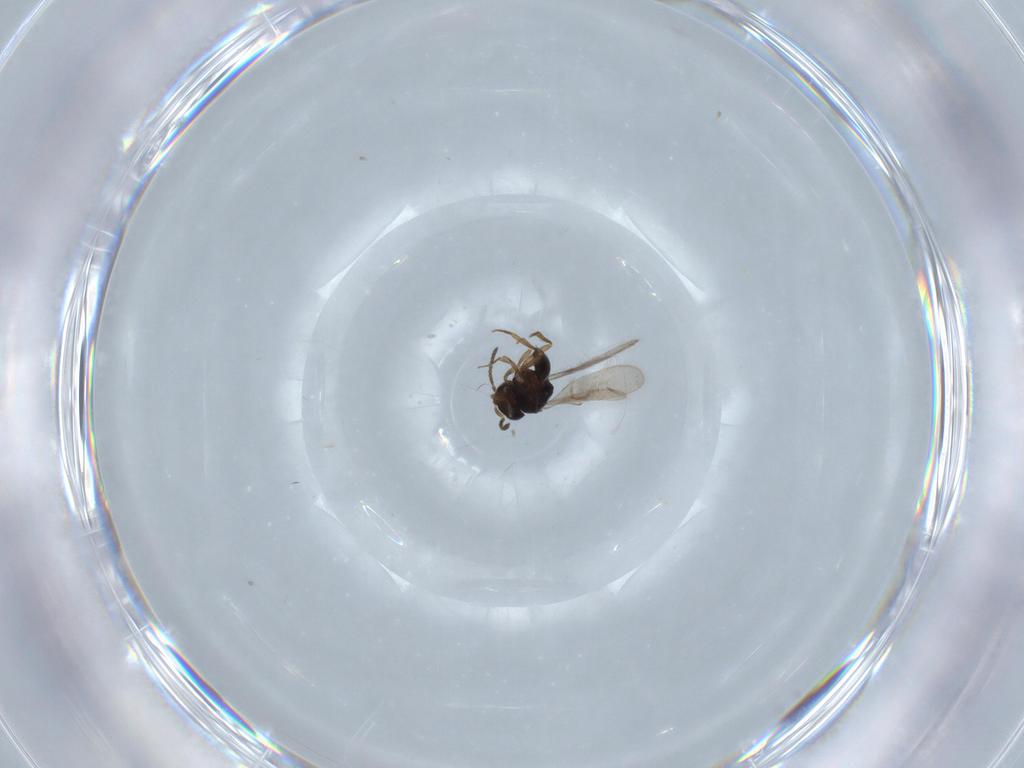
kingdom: Animalia
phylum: Arthropoda
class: Insecta
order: Hymenoptera
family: Scelionidae
